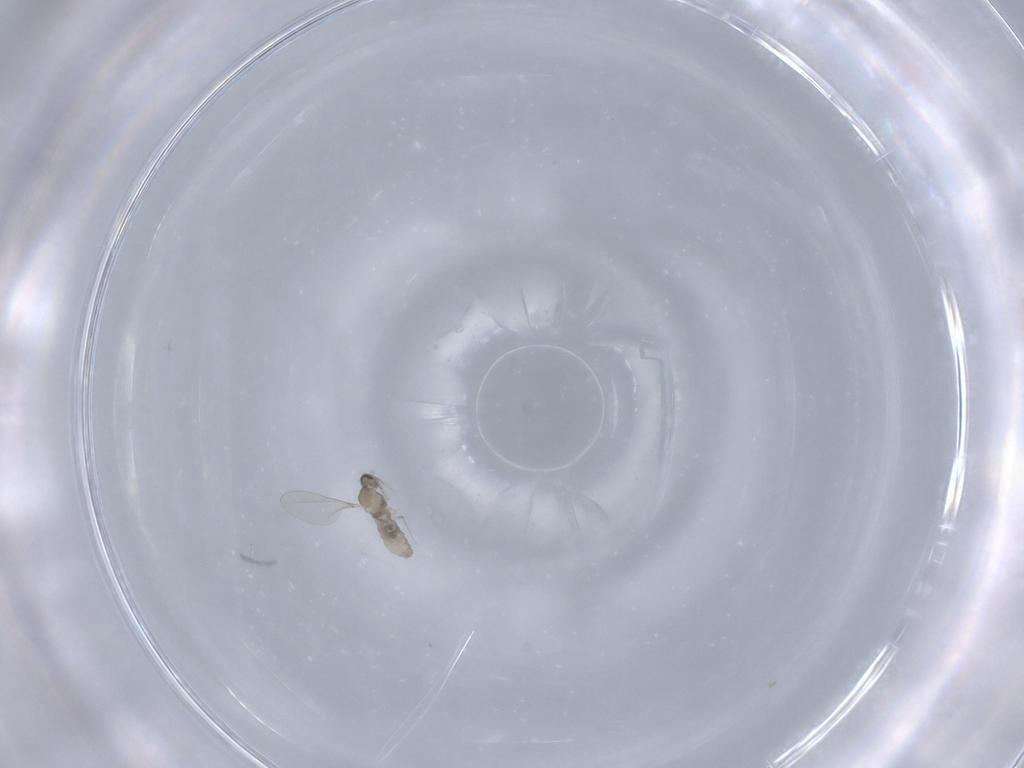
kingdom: Animalia
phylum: Arthropoda
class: Insecta
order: Diptera
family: Cecidomyiidae
